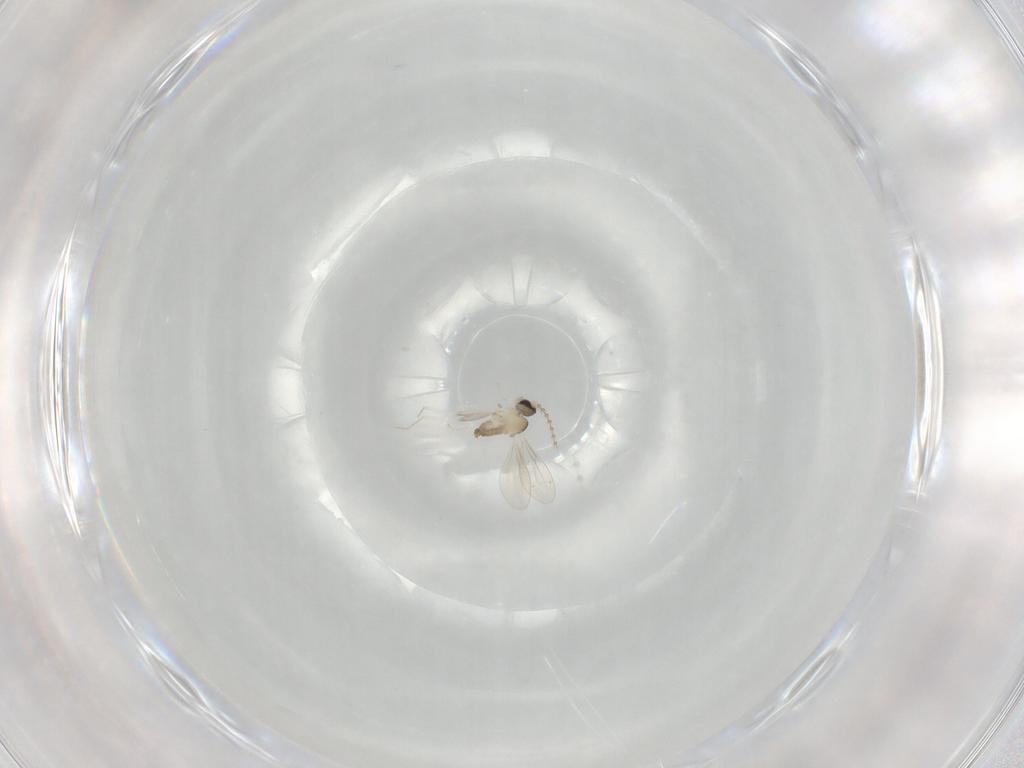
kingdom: Animalia
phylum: Arthropoda
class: Insecta
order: Diptera
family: Cecidomyiidae
